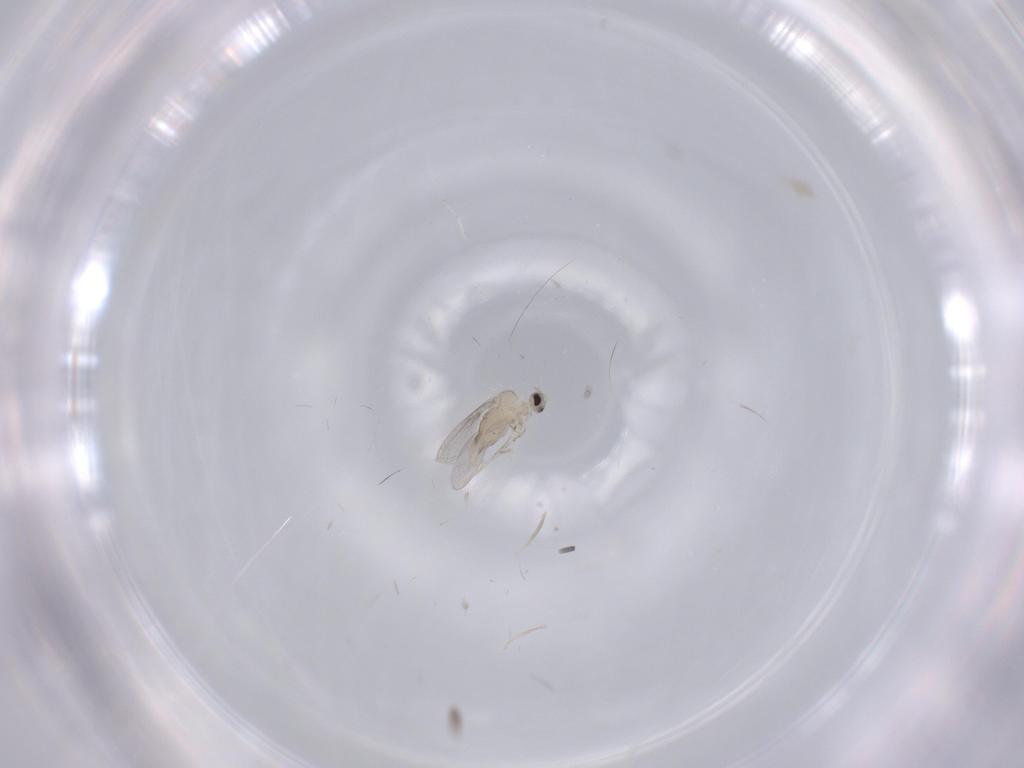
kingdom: Animalia
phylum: Arthropoda
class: Insecta
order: Diptera
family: Cecidomyiidae
